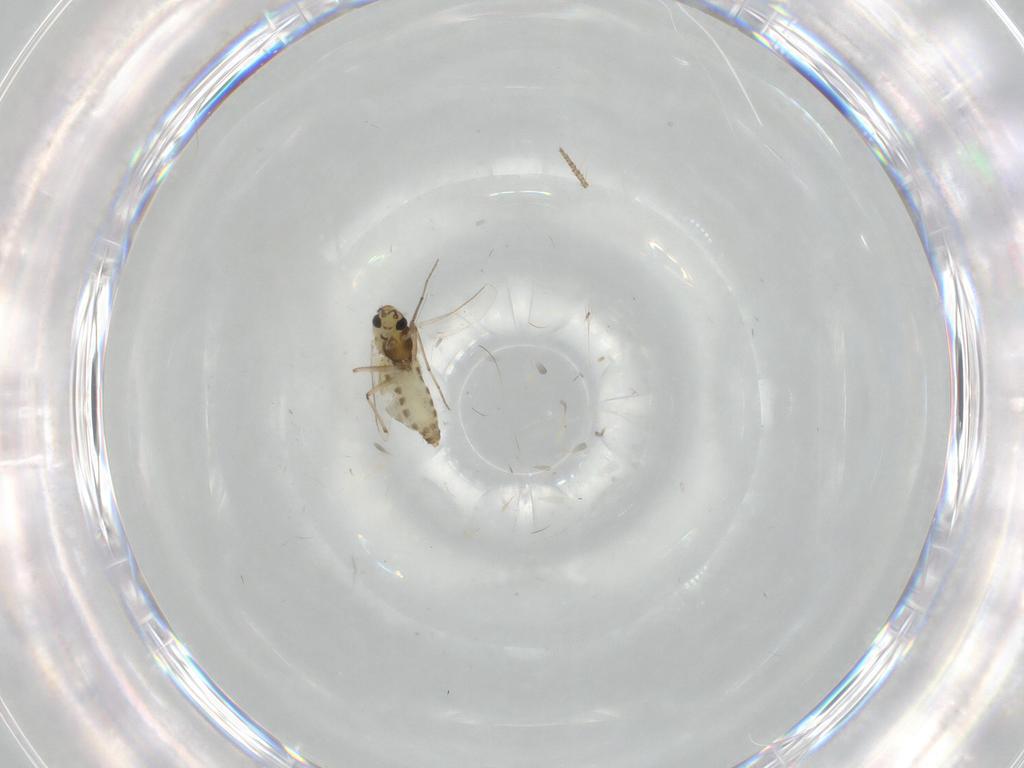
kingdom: Animalia
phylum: Arthropoda
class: Insecta
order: Diptera
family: Chironomidae
